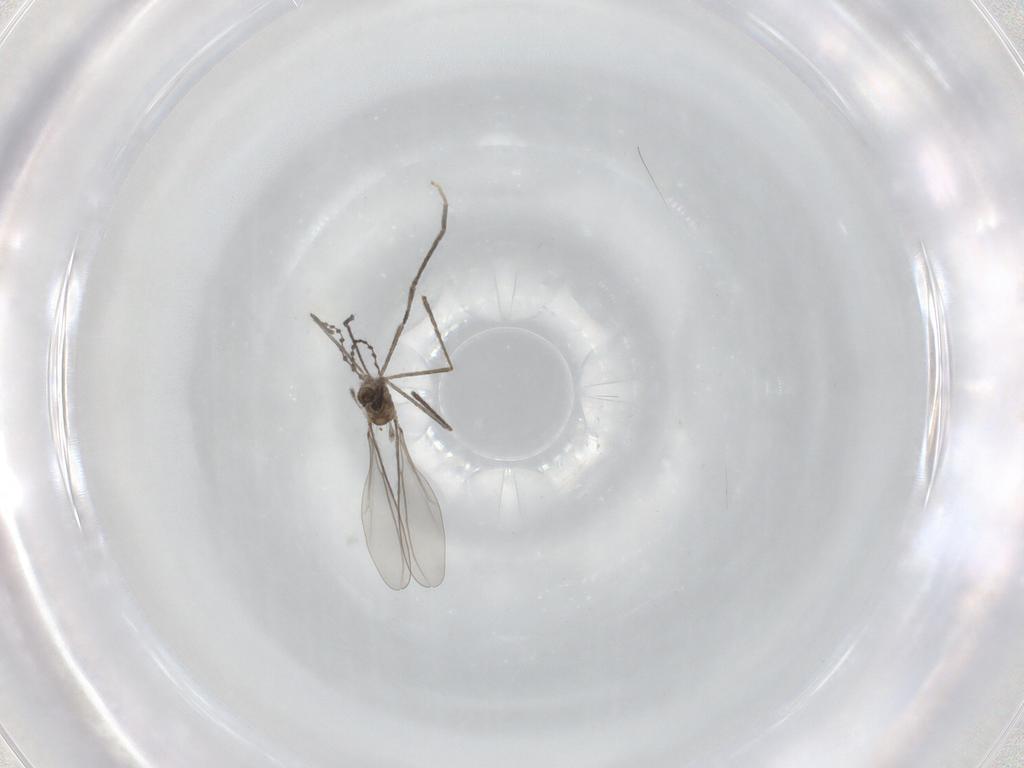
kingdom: Animalia
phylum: Arthropoda
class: Insecta
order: Diptera
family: Cecidomyiidae
